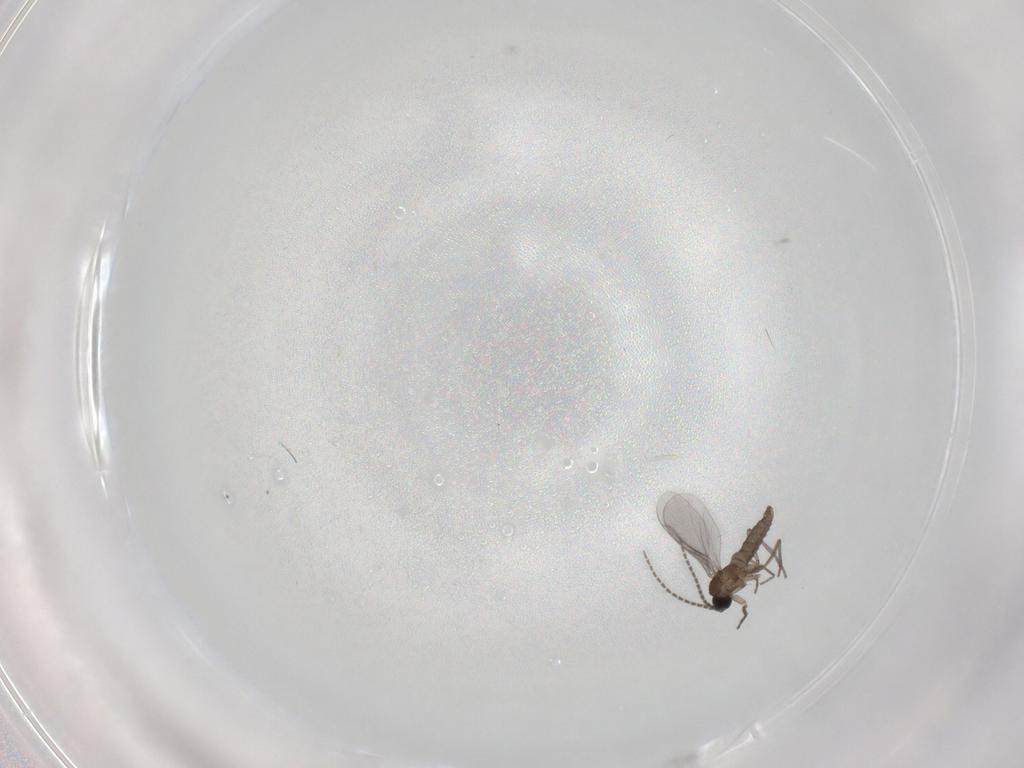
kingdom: Animalia
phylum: Arthropoda
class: Insecta
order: Diptera
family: Sciaridae
